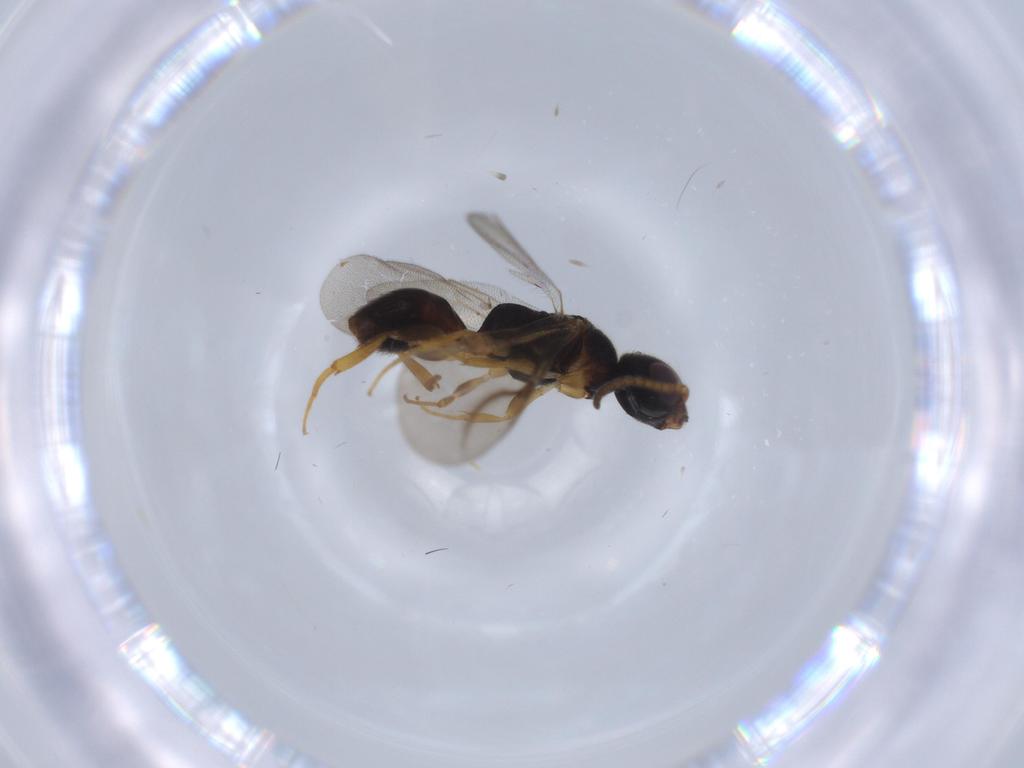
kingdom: Animalia
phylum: Arthropoda
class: Insecta
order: Hymenoptera
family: Bethylidae
